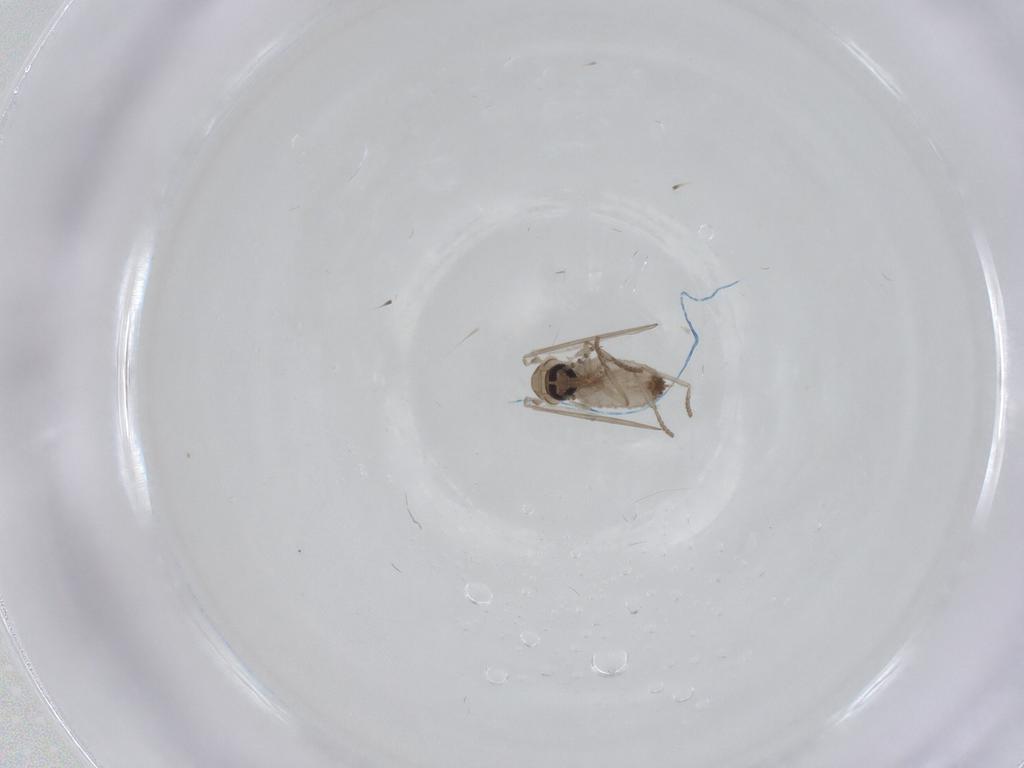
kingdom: Animalia
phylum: Arthropoda
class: Insecta
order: Diptera
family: Psychodidae
